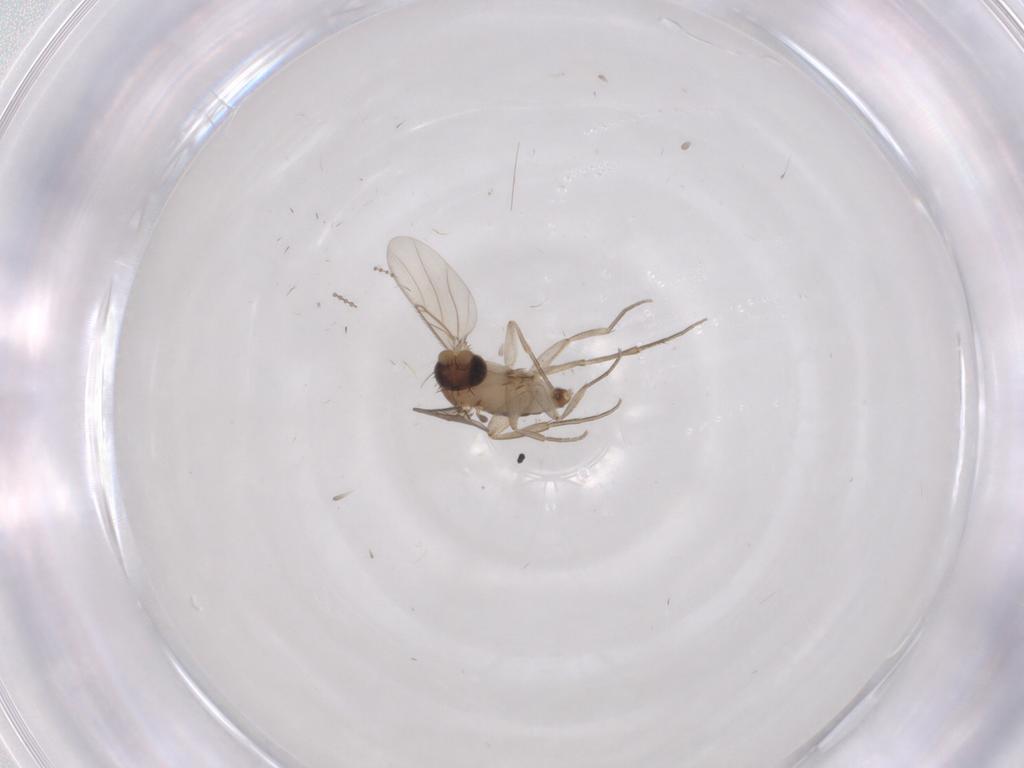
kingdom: Animalia
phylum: Arthropoda
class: Insecta
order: Diptera
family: Phoridae
